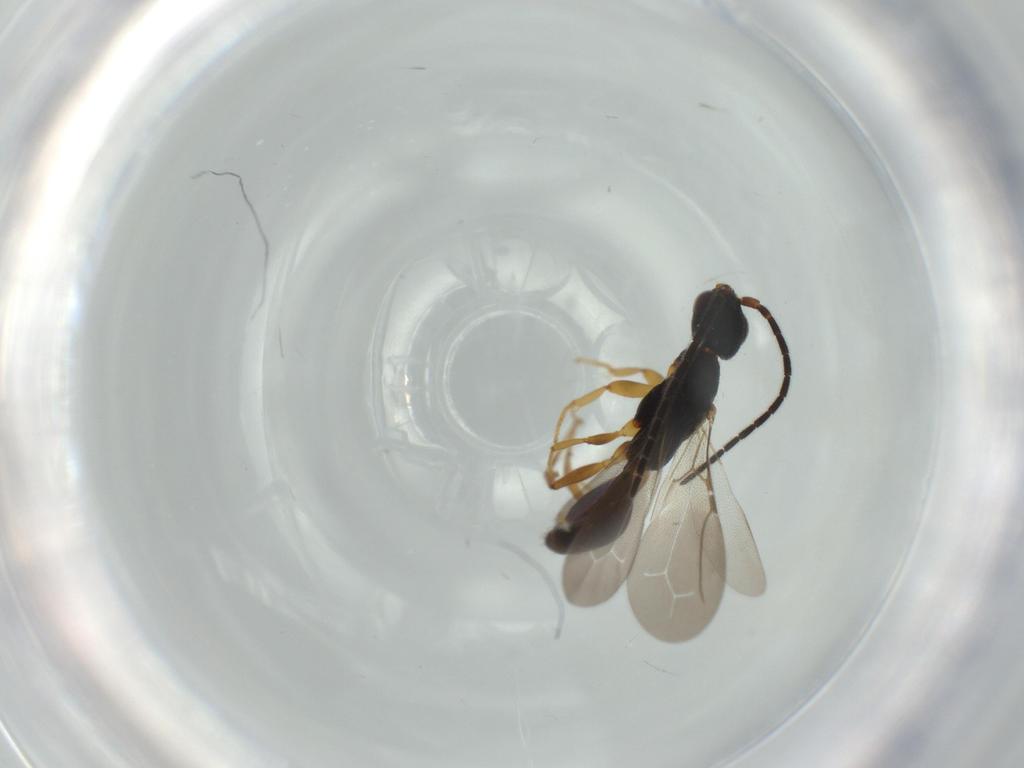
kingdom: Animalia
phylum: Arthropoda
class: Insecta
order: Hymenoptera
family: Bethylidae
